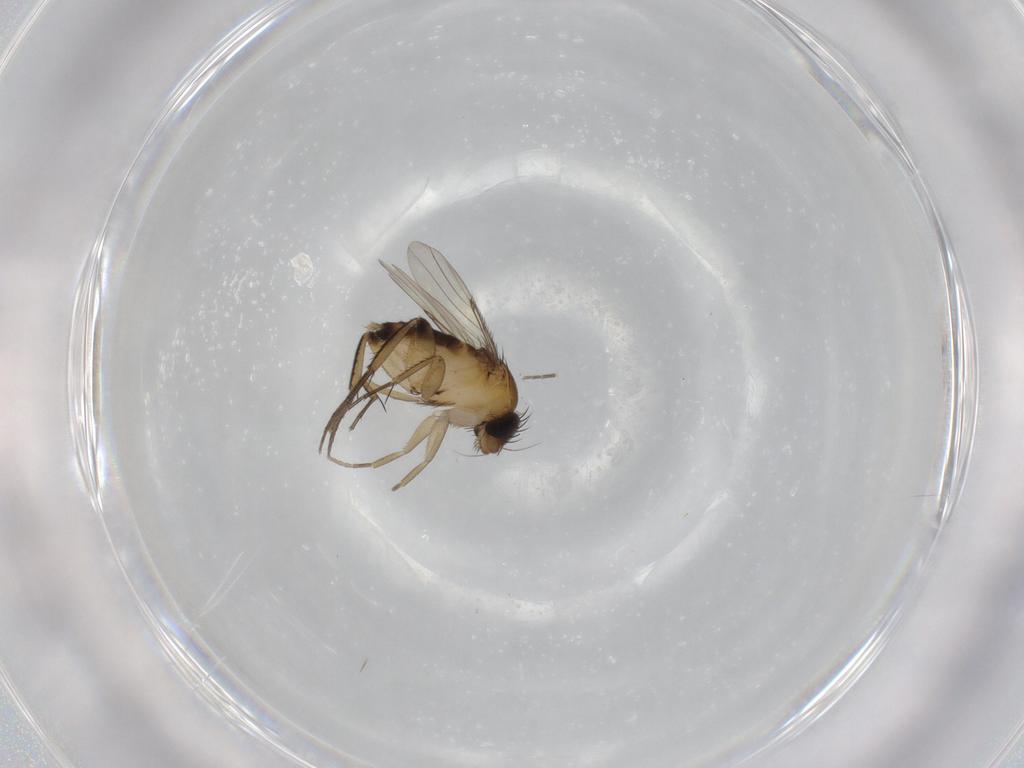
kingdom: Animalia
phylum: Arthropoda
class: Insecta
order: Diptera
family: Phoridae
